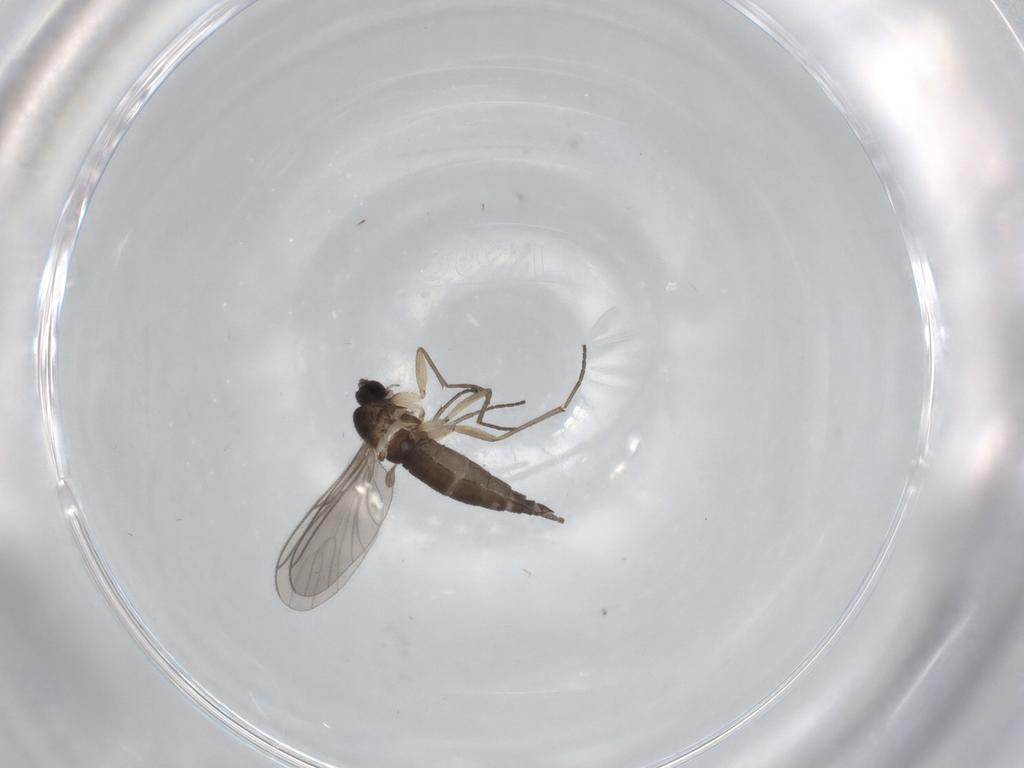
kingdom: Animalia
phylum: Arthropoda
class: Insecta
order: Diptera
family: Sciaridae
